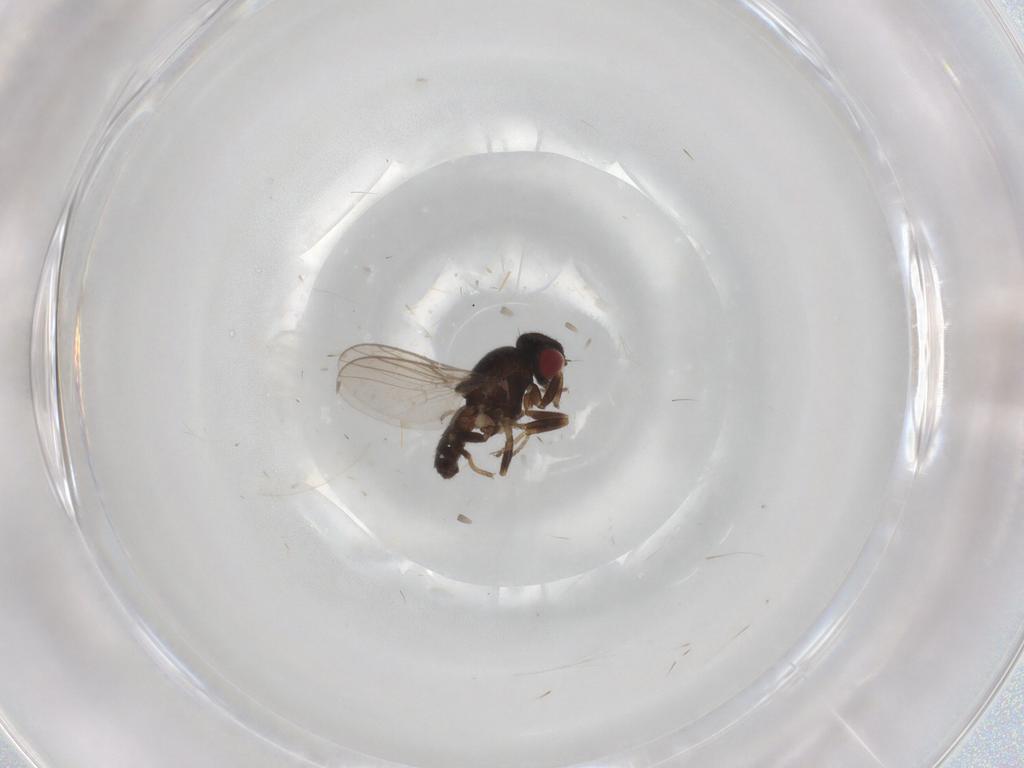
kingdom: Animalia
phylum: Arthropoda
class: Insecta
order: Diptera
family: Chloropidae
